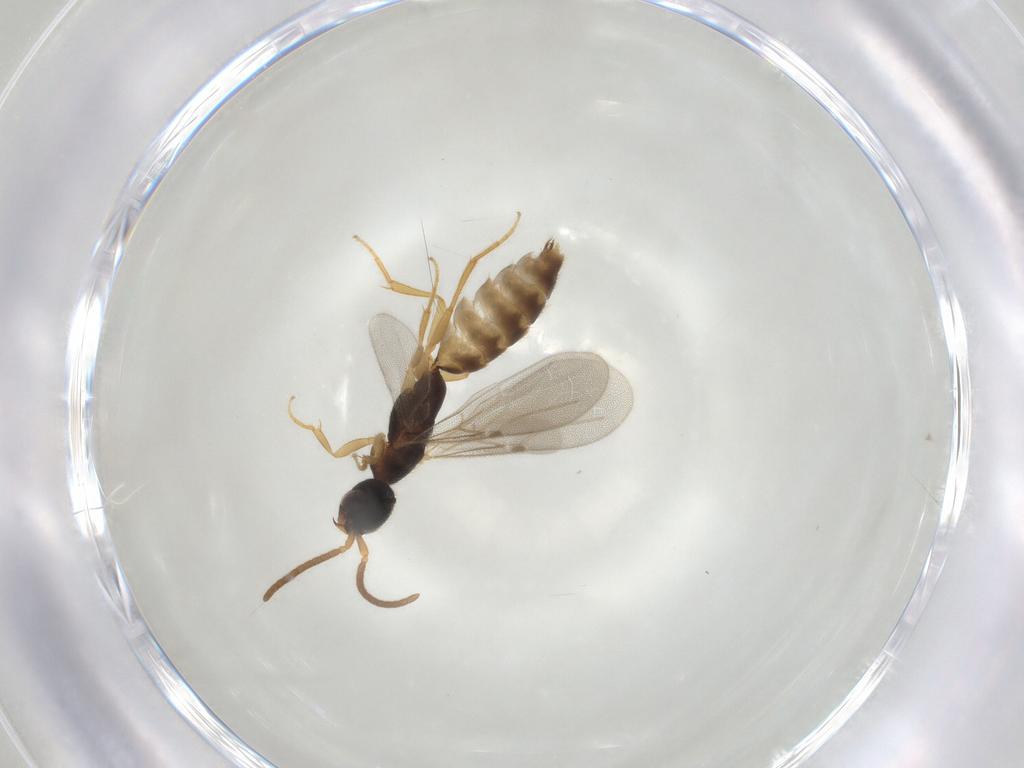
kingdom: Animalia
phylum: Arthropoda
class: Insecta
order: Hymenoptera
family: Bethylidae
